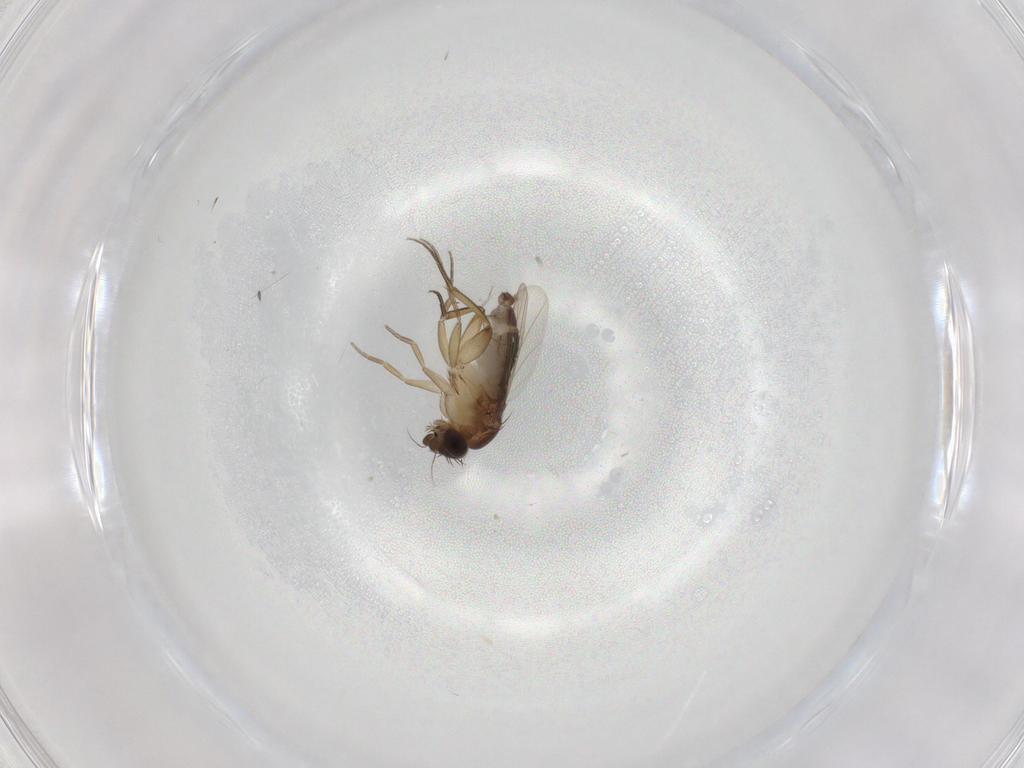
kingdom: Animalia
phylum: Arthropoda
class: Insecta
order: Diptera
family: Phoridae
